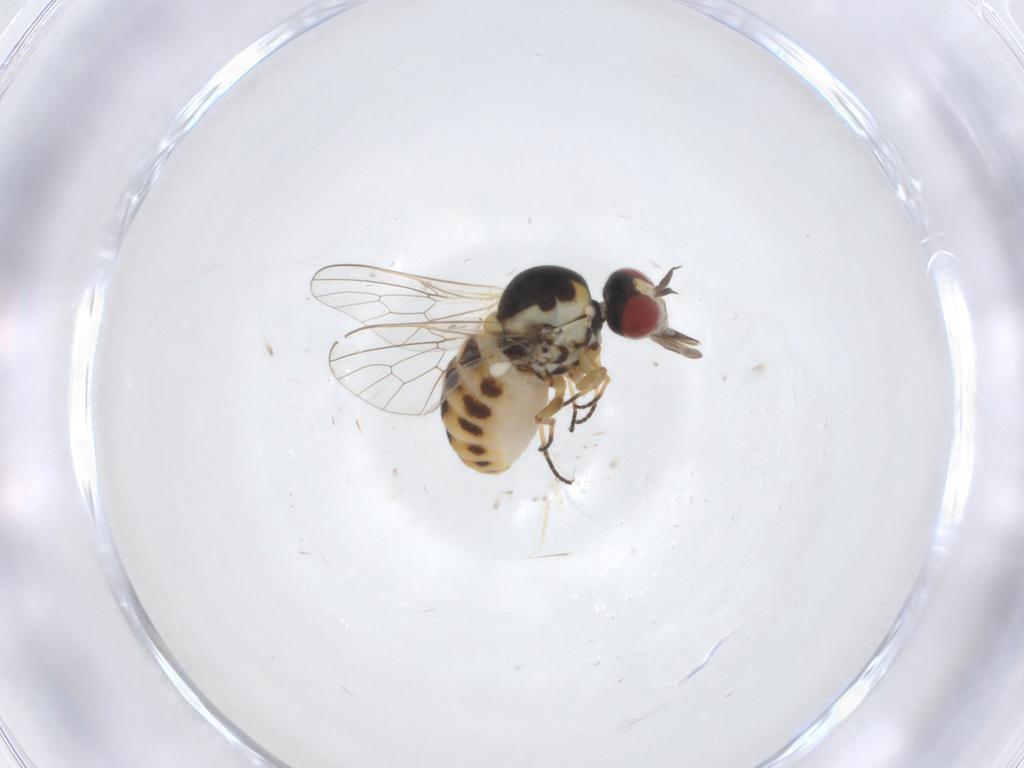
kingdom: Animalia
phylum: Arthropoda
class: Insecta
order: Diptera
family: Mythicomyiidae
